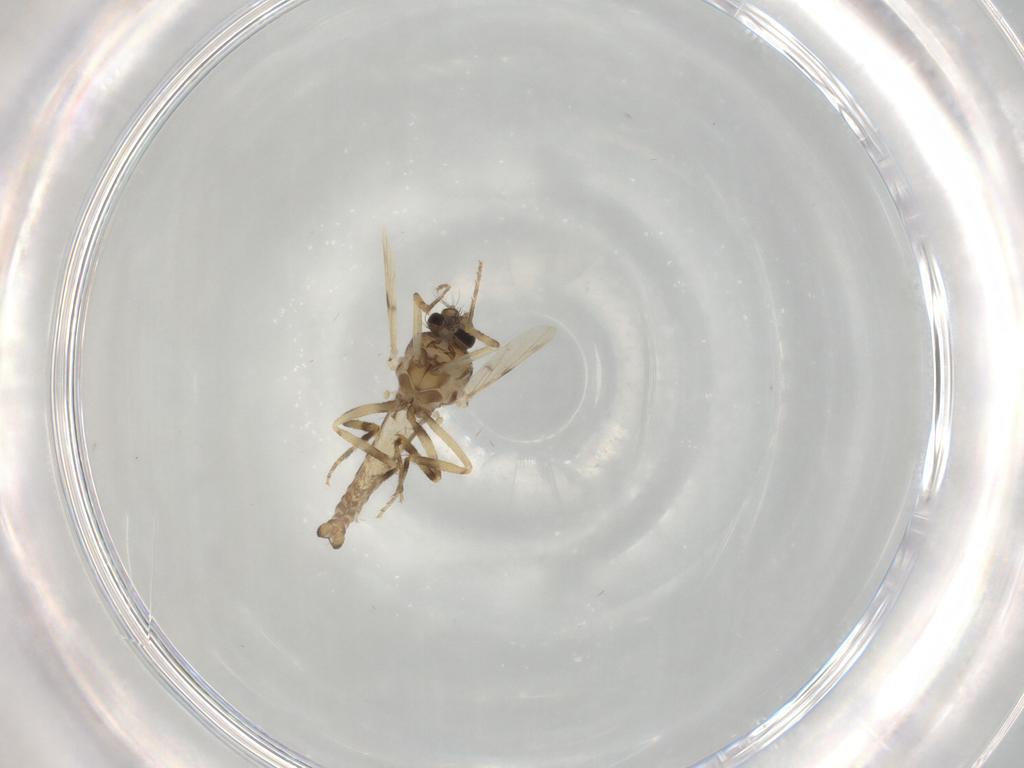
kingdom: Animalia
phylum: Arthropoda
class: Insecta
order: Diptera
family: Ceratopogonidae
